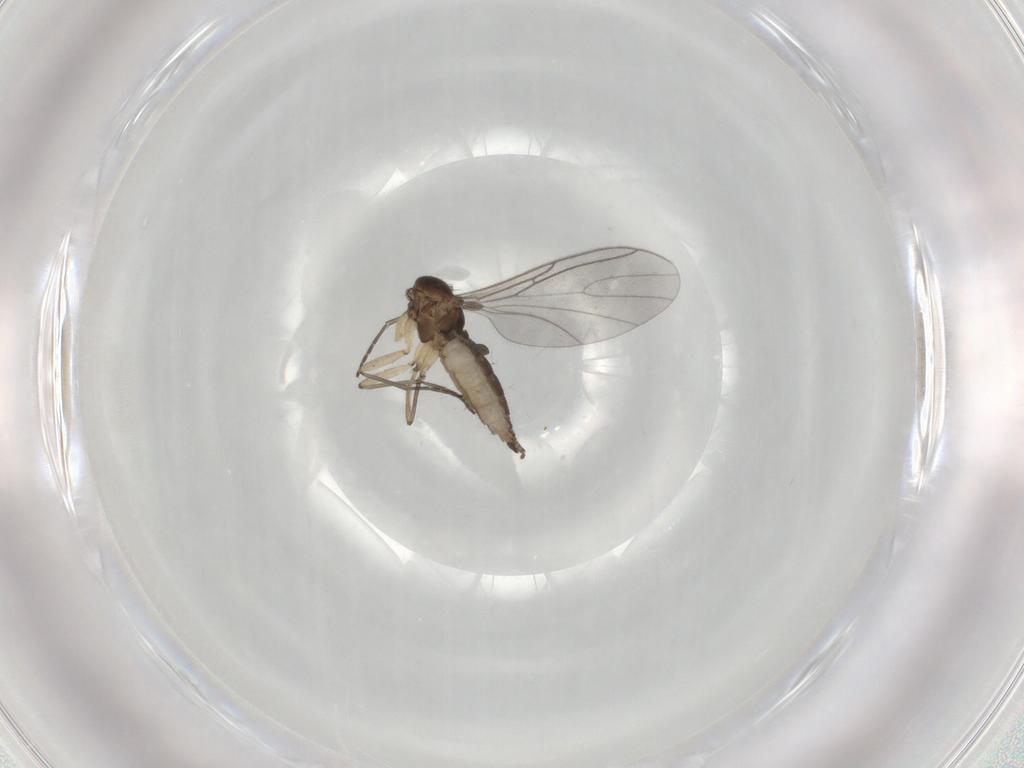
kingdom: Animalia
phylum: Arthropoda
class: Insecta
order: Diptera
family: Sciaridae
